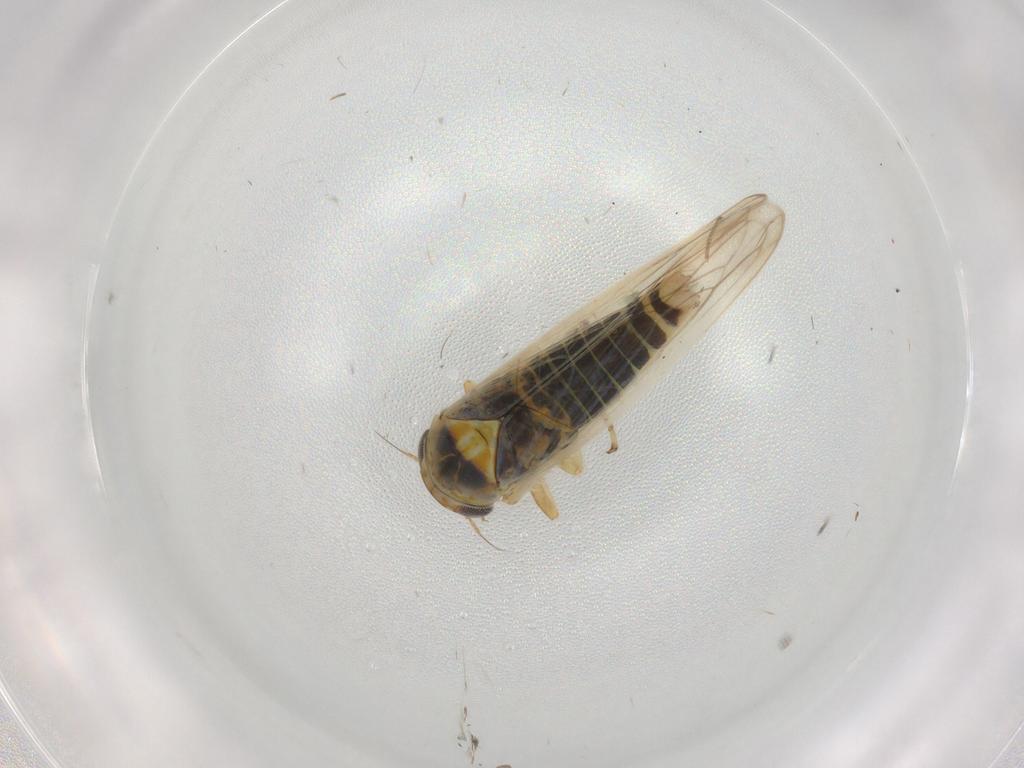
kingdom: Animalia
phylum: Arthropoda
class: Insecta
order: Hemiptera
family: Cicadellidae
